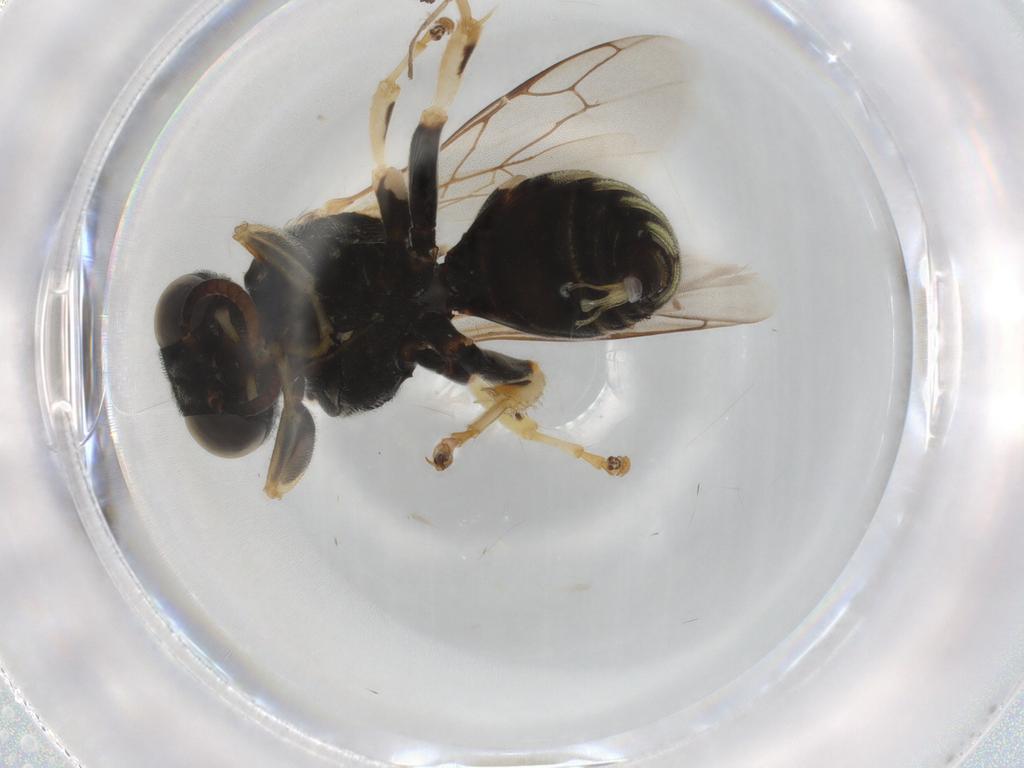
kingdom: Animalia
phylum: Arthropoda
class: Insecta
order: Hymenoptera
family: Crabronidae
